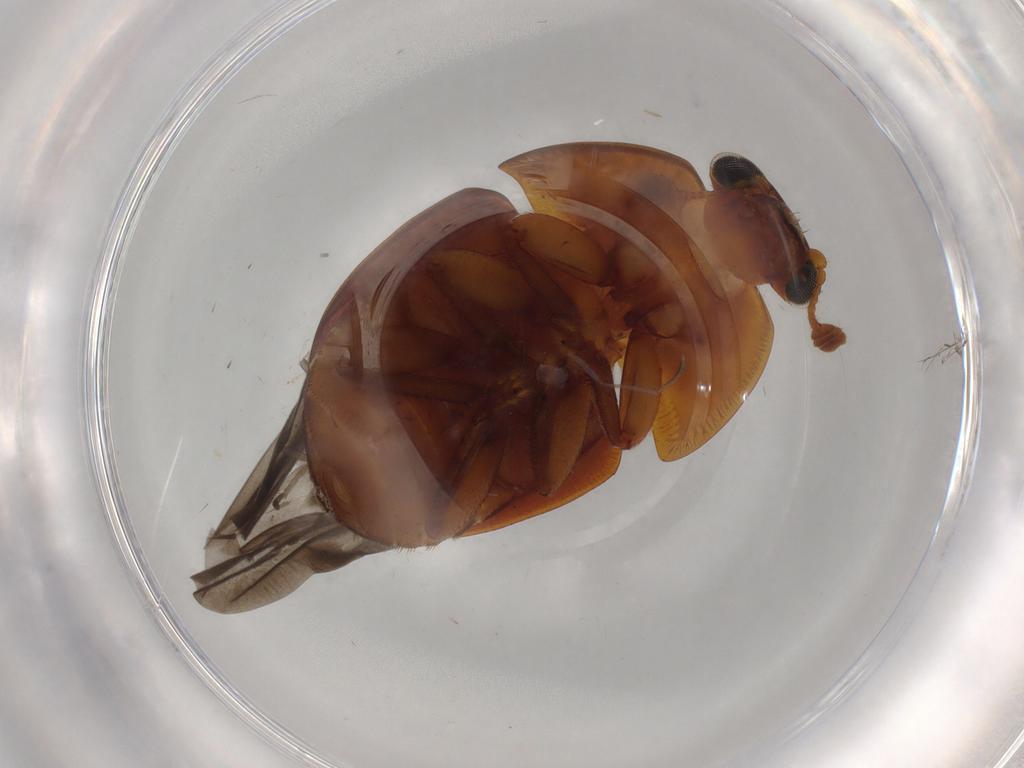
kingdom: Animalia
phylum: Arthropoda
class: Insecta
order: Coleoptera
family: Nitidulidae
